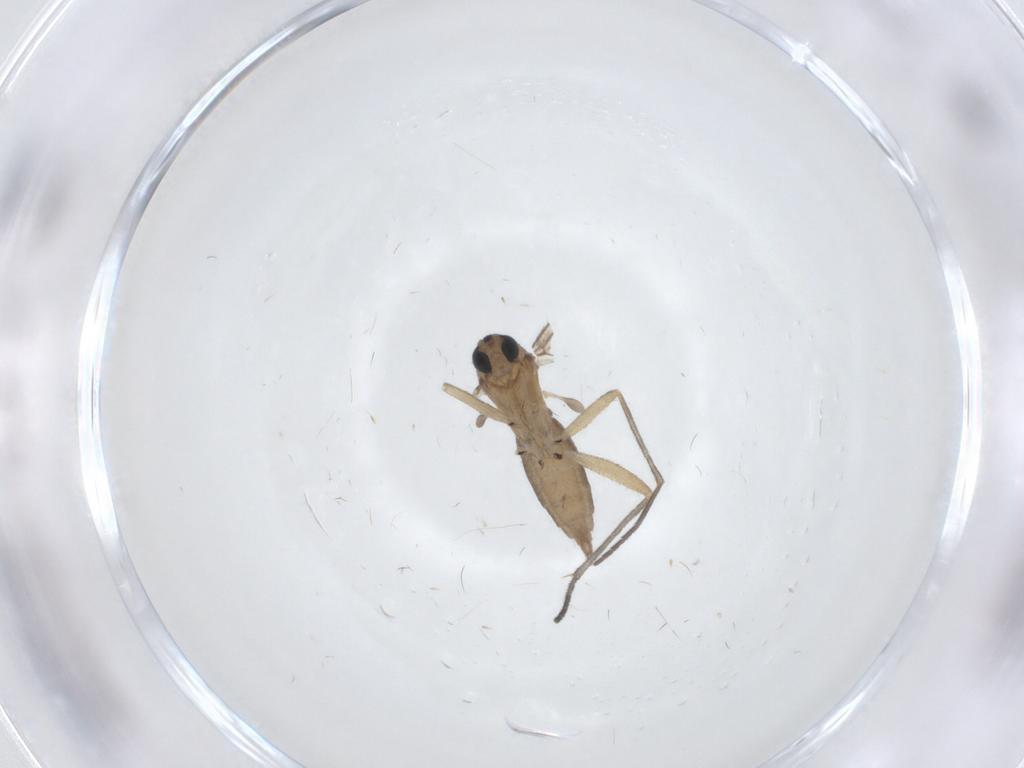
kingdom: Animalia
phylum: Arthropoda
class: Insecta
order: Diptera
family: Sciaridae
